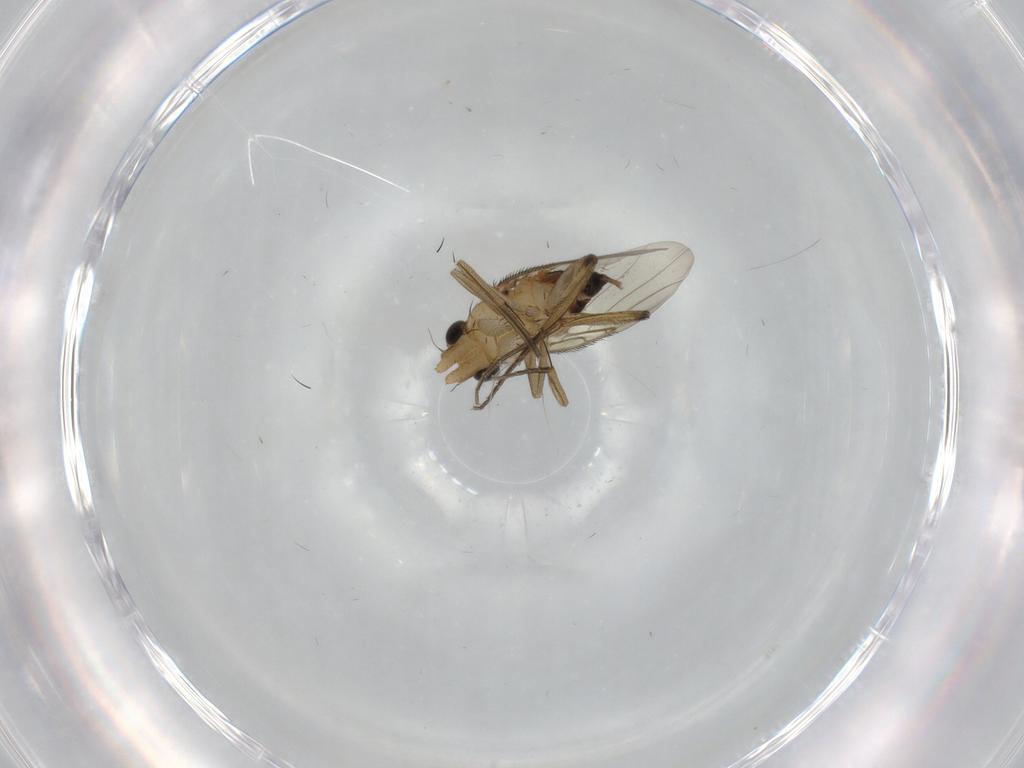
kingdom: Animalia
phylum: Arthropoda
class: Insecta
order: Diptera
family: Phoridae
